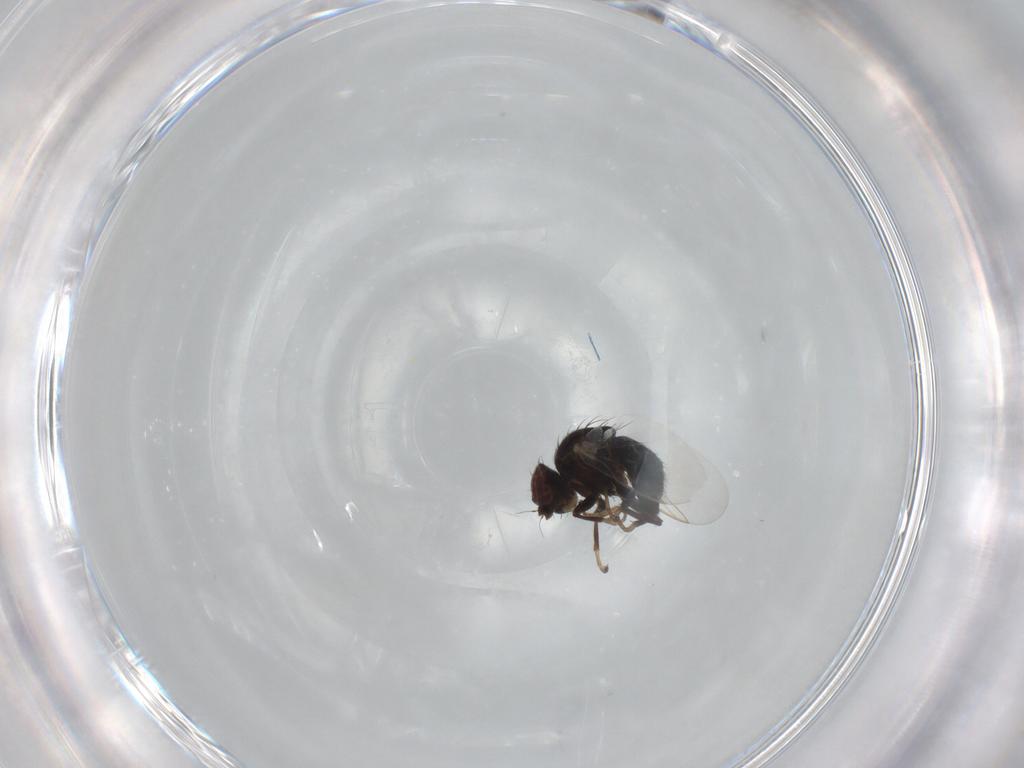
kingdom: Animalia
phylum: Arthropoda
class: Insecta
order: Diptera
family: Agromyzidae
